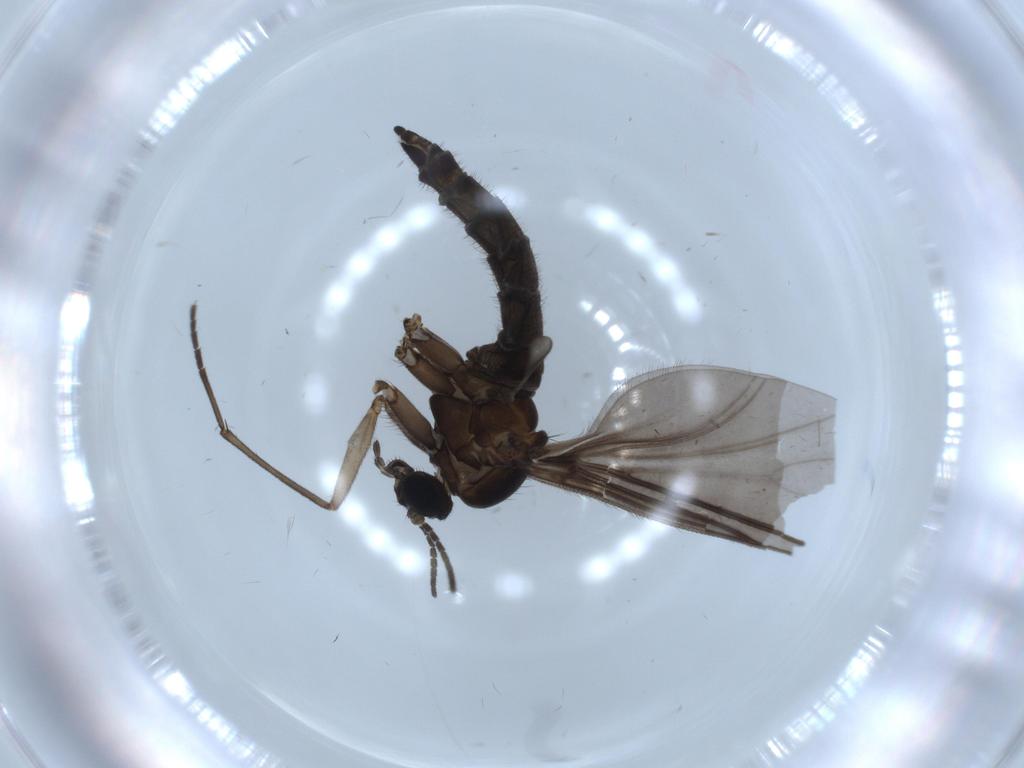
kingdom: Animalia
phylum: Arthropoda
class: Insecta
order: Diptera
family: Sciaridae
